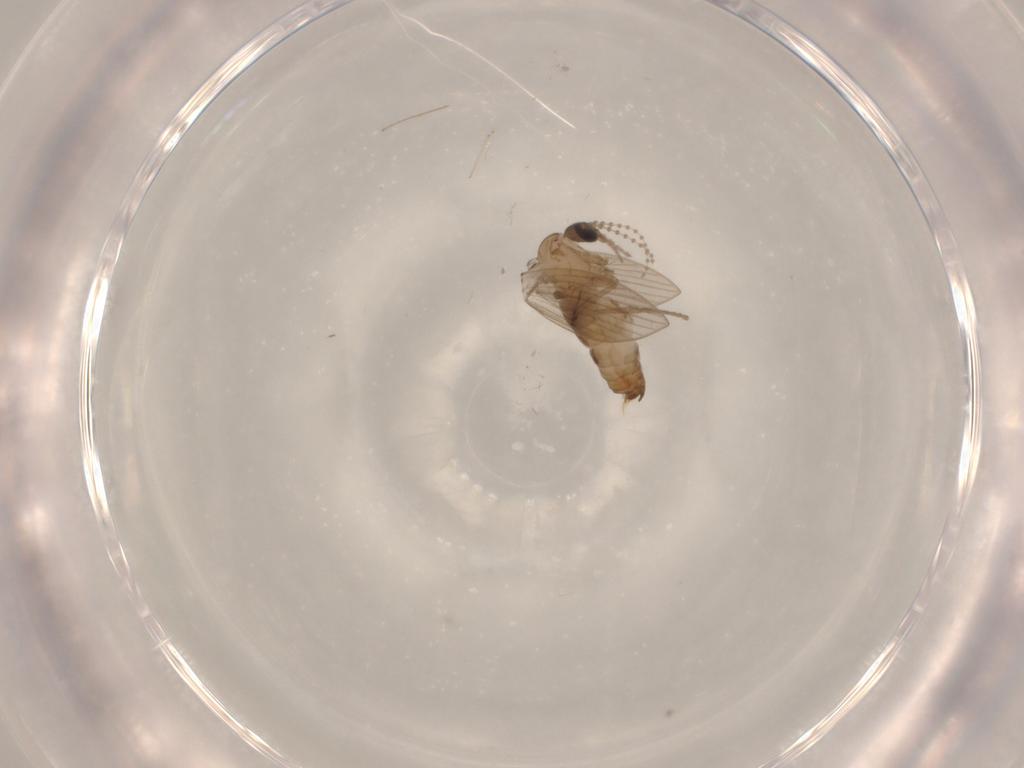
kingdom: Animalia
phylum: Arthropoda
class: Insecta
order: Diptera
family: Psychodidae
